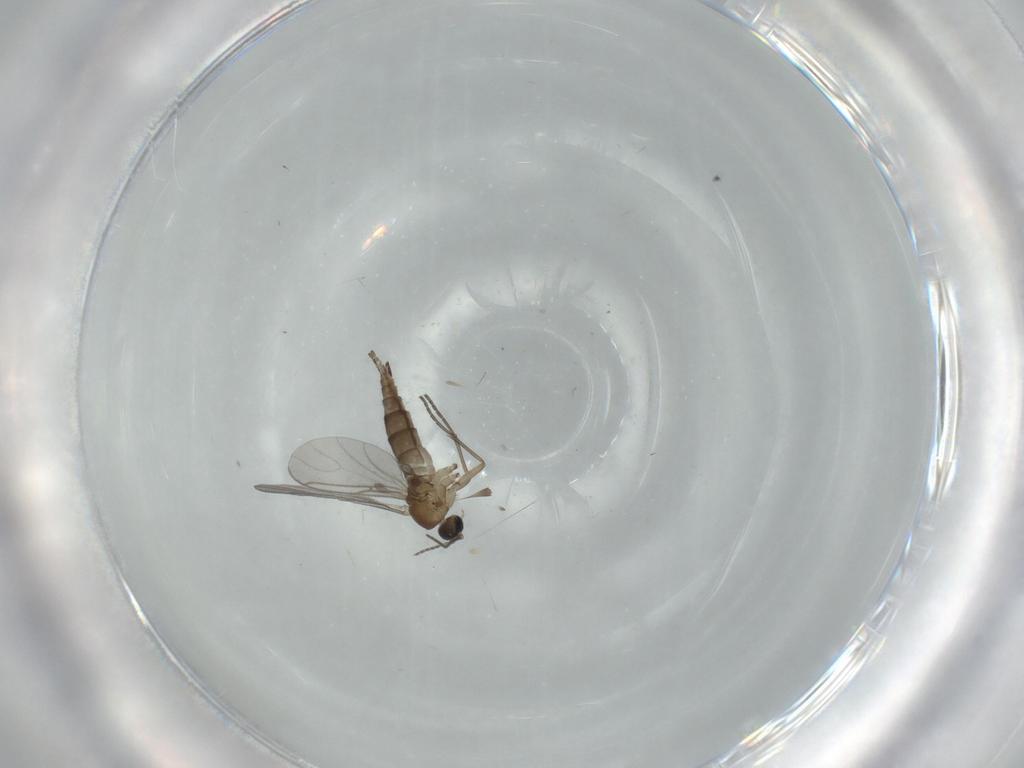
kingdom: Animalia
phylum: Arthropoda
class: Insecta
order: Diptera
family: Sciaridae
